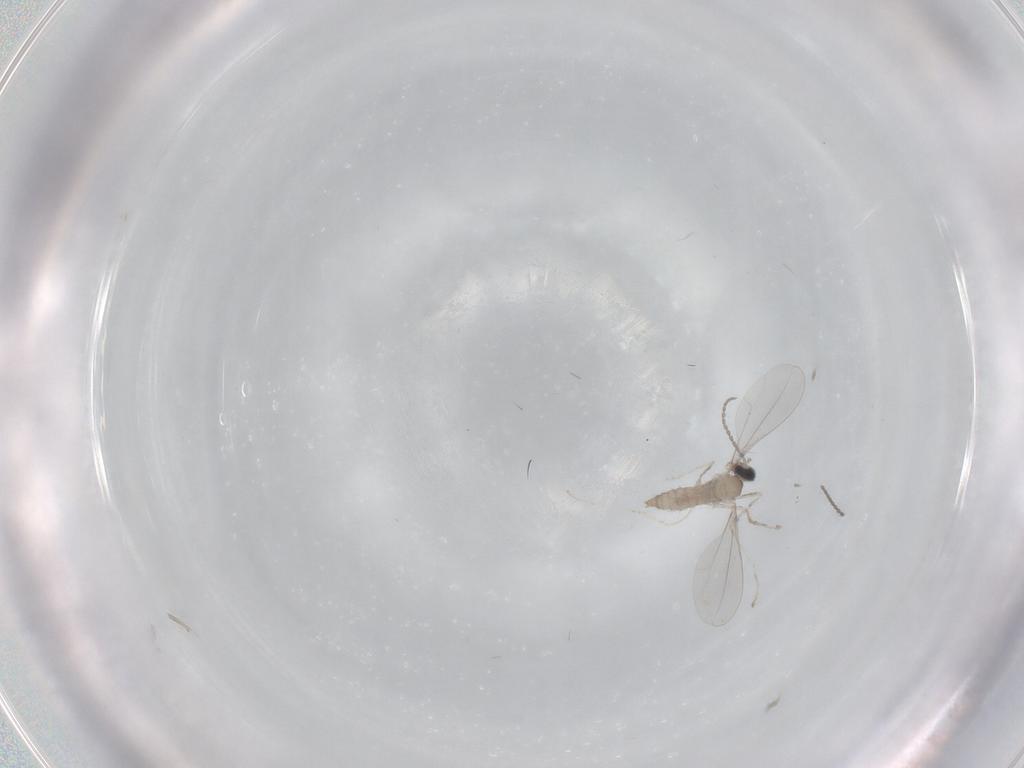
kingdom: Animalia
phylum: Arthropoda
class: Insecta
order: Diptera
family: Cecidomyiidae
